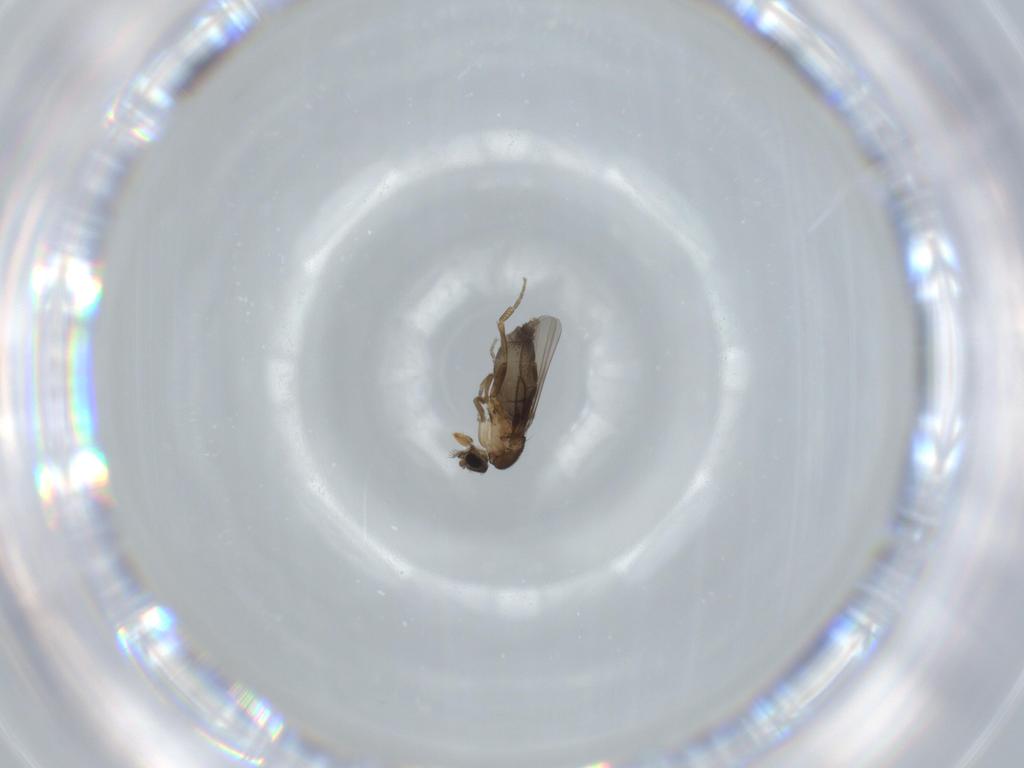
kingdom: Animalia
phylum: Arthropoda
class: Insecta
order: Diptera
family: Phoridae
